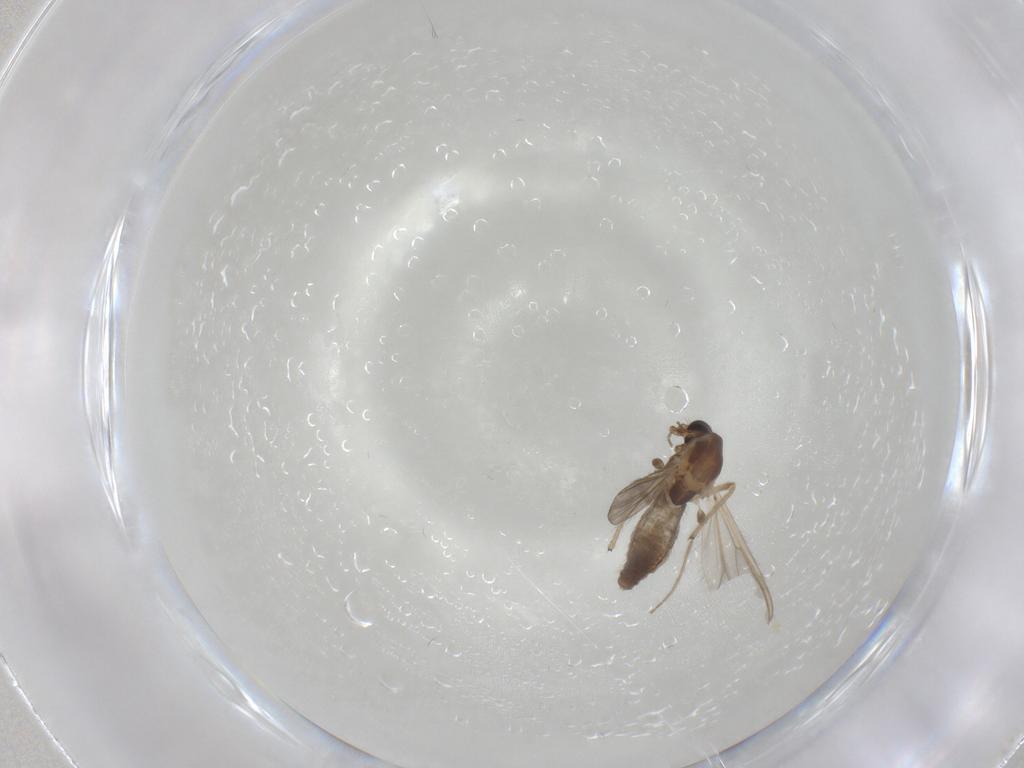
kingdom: Animalia
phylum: Arthropoda
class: Insecta
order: Diptera
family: Chironomidae
